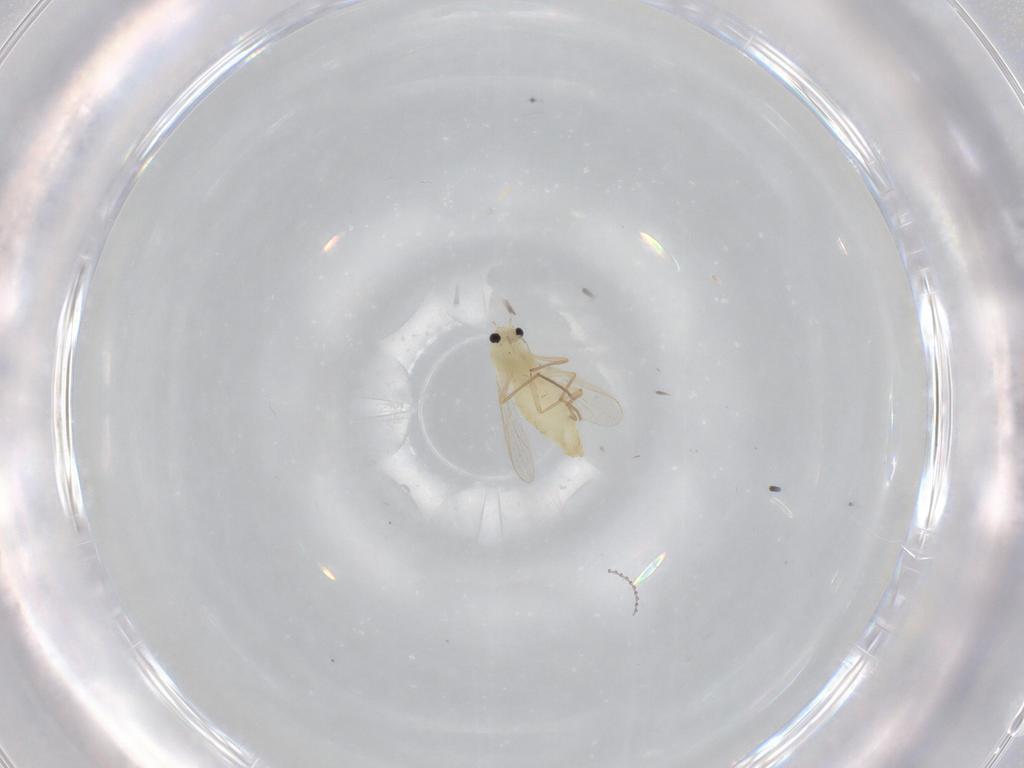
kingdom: Animalia
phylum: Arthropoda
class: Insecta
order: Diptera
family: Chironomidae
